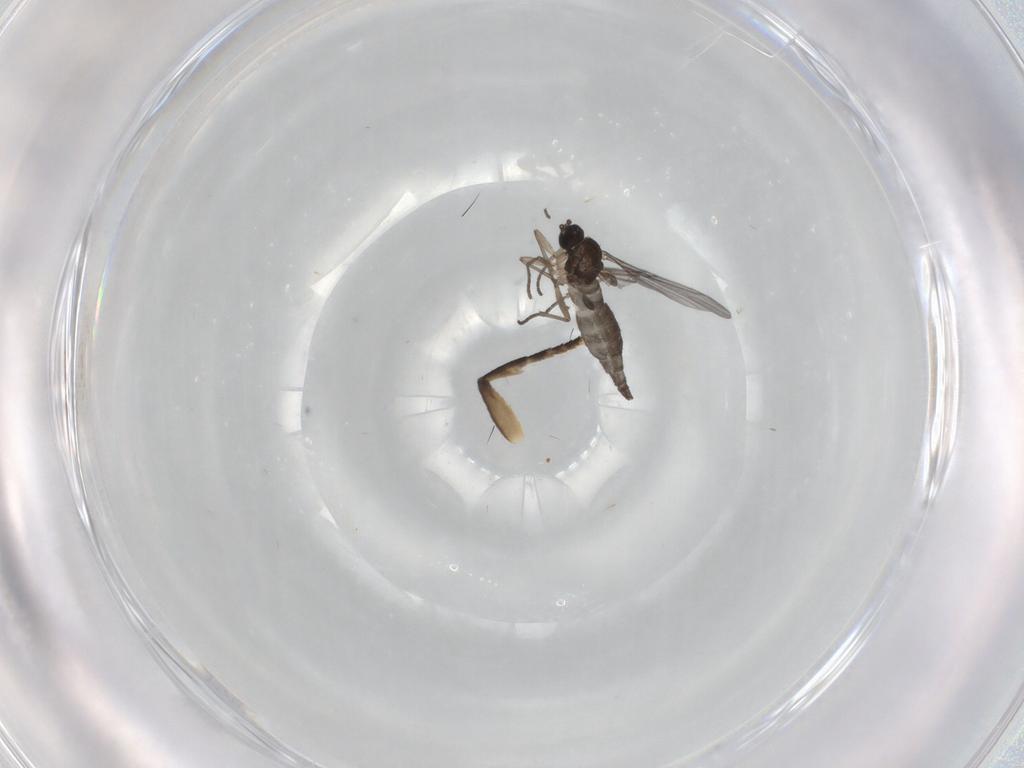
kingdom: Animalia
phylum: Arthropoda
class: Insecta
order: Diptera
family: Sciaridae
